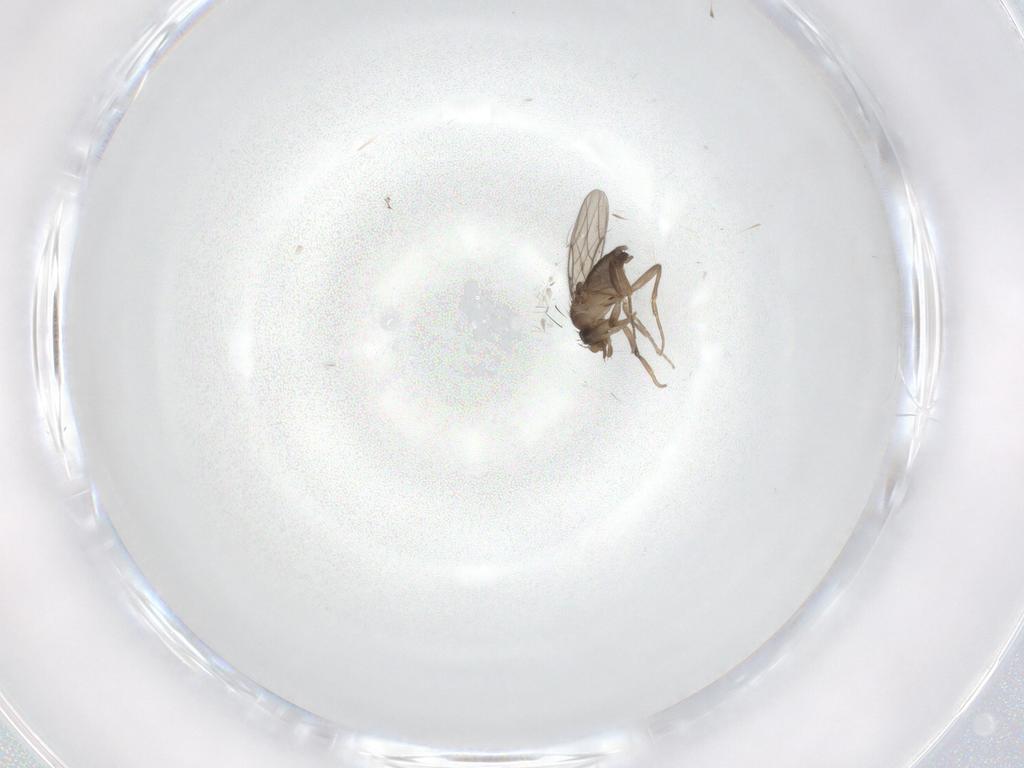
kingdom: Animalia
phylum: Arthropoda
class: Insecta
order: Diptera
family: Phoridae
